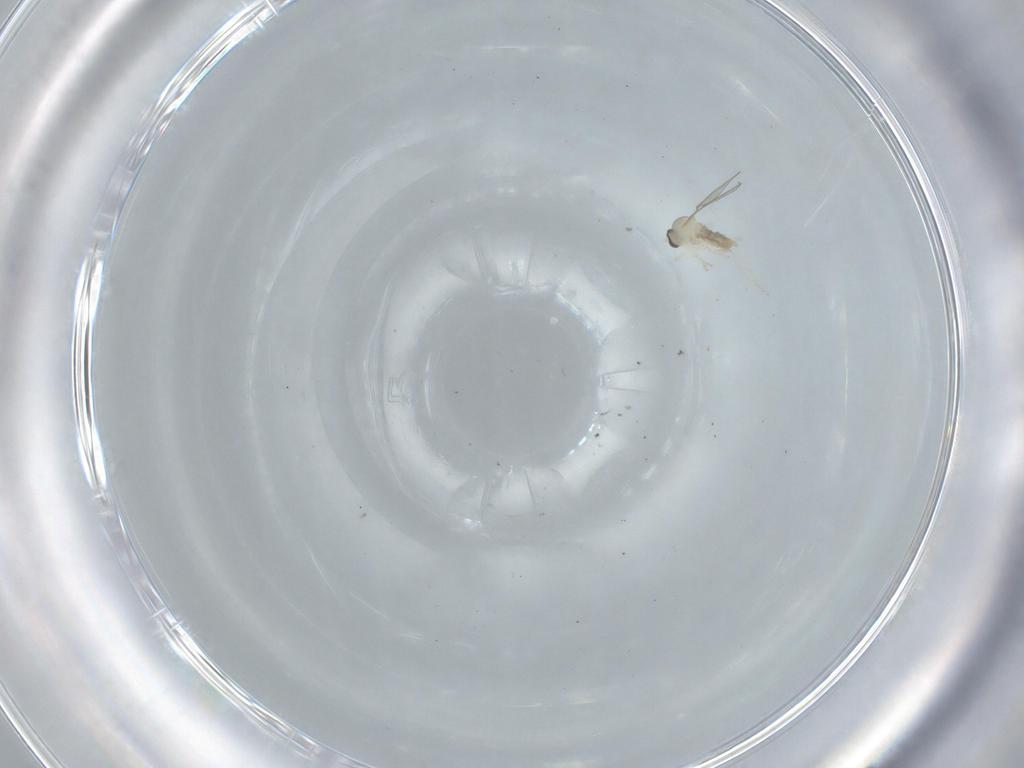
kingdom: Animalia
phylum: Arthropoda
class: Insecta
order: Diptera
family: Cecidomyiidae
